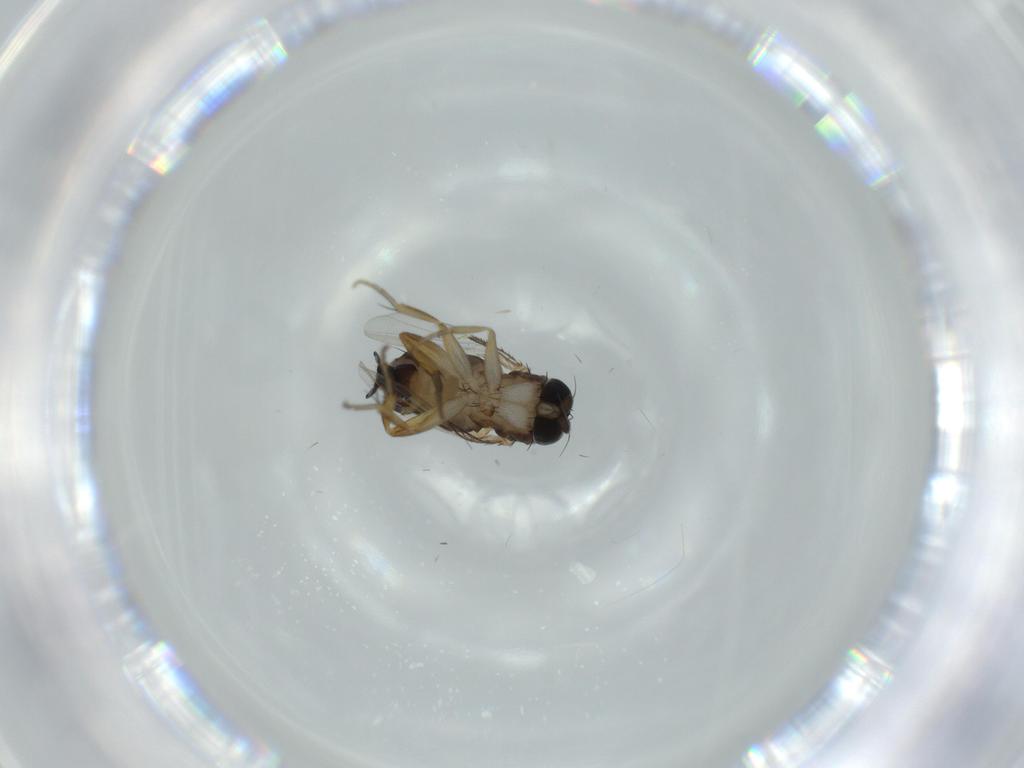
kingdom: Animalia
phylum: Arthropoda
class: Insecta
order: Diptera
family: Phoridae
